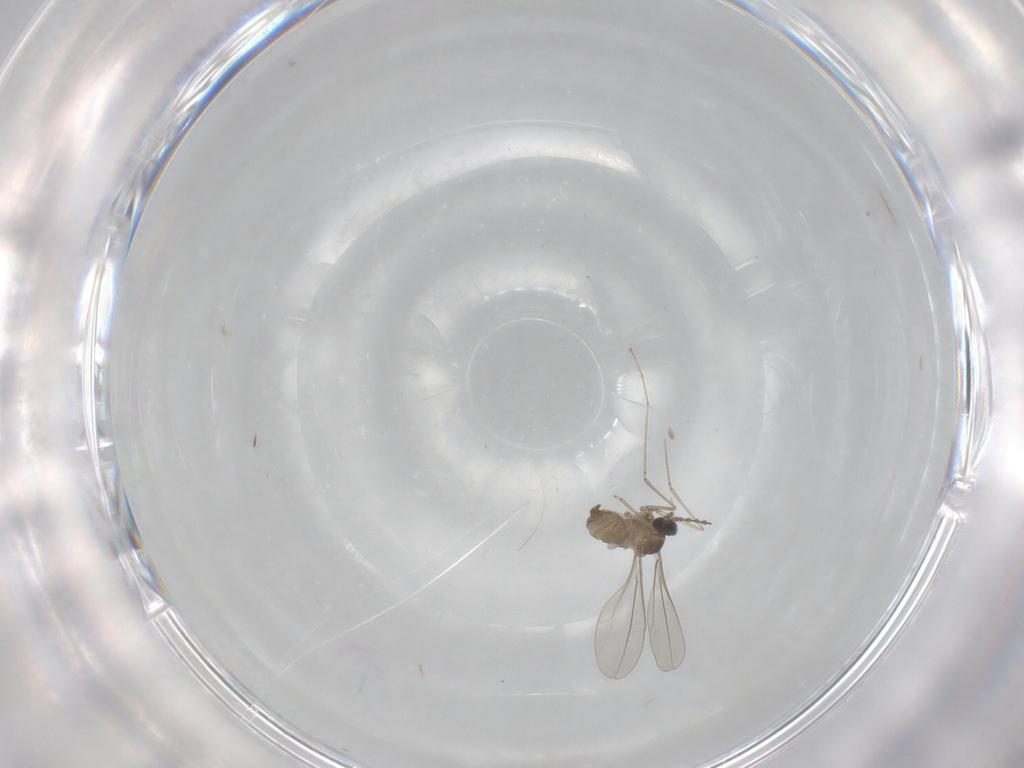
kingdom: Animalia
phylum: Arthropoda
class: Insecta
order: Diptera
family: Cecidomyiidae
